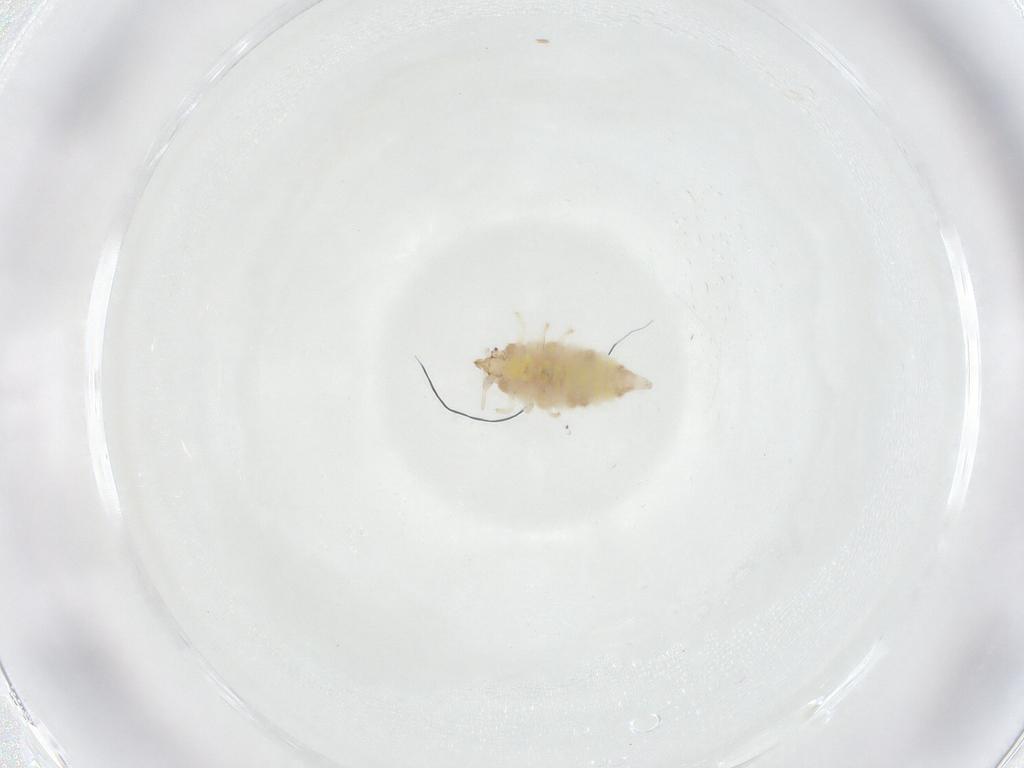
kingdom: Animalia
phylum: Arthropoda
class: Insecta
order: Neuroptera
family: Coniopterygidae
